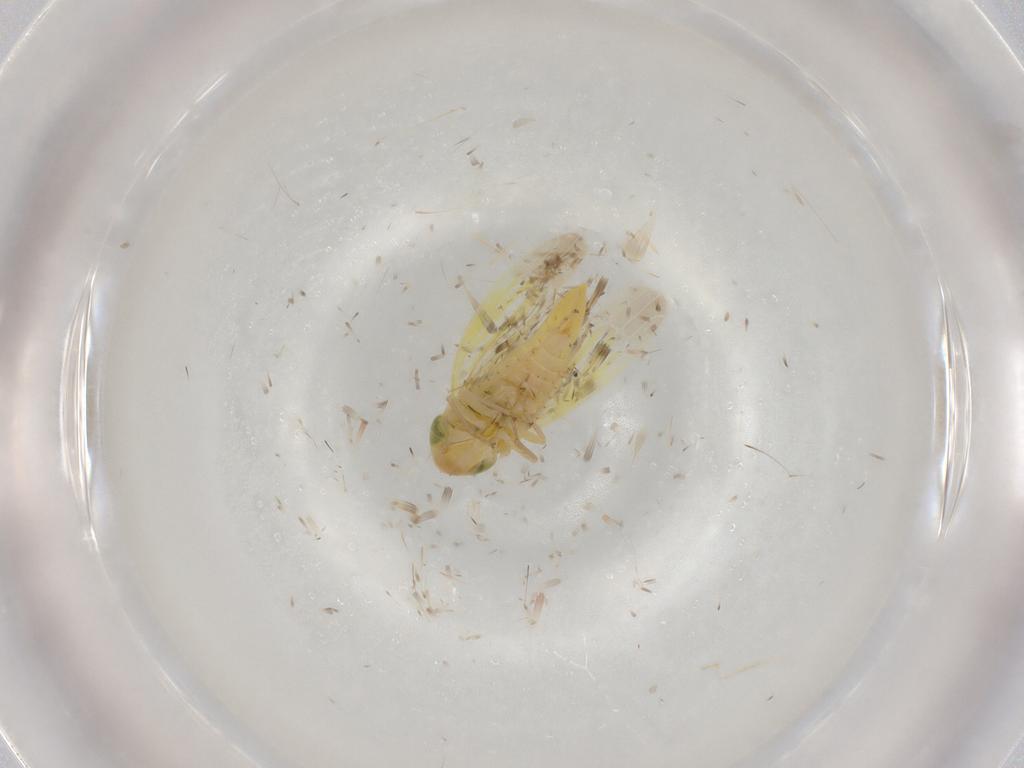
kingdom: Animalia
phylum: Arthropoda
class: Insecta
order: Hemiptera
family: Cicadellidae
